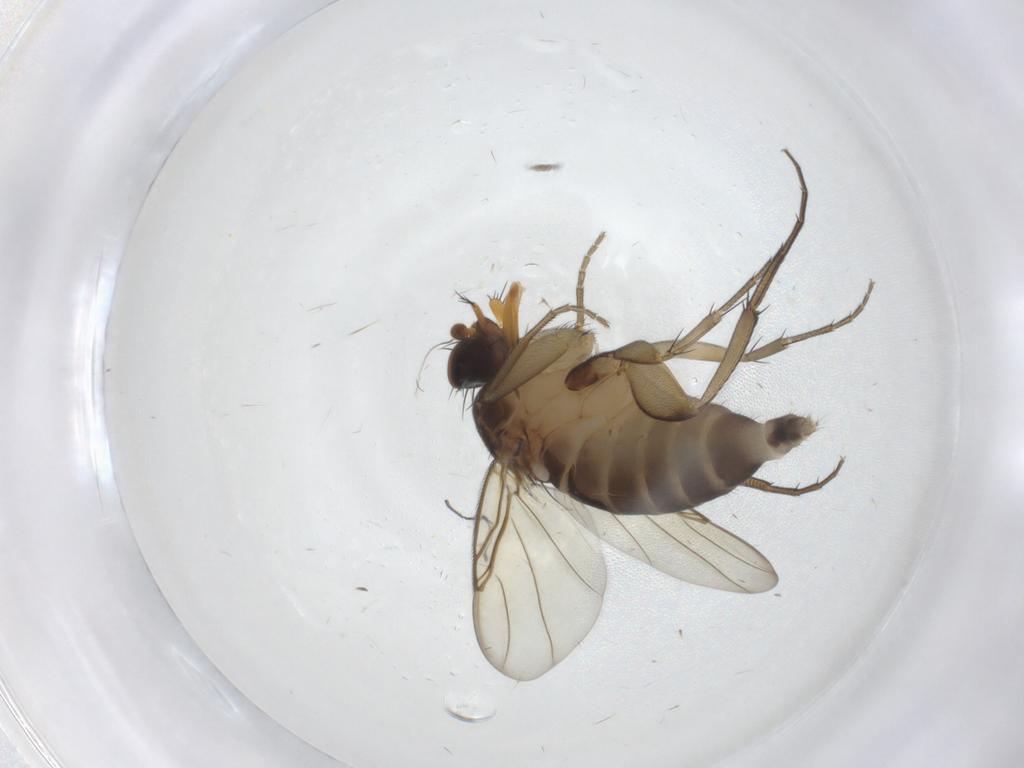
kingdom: Animalia
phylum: Arthropoda
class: Insecta
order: Diptera
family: Phoridae
